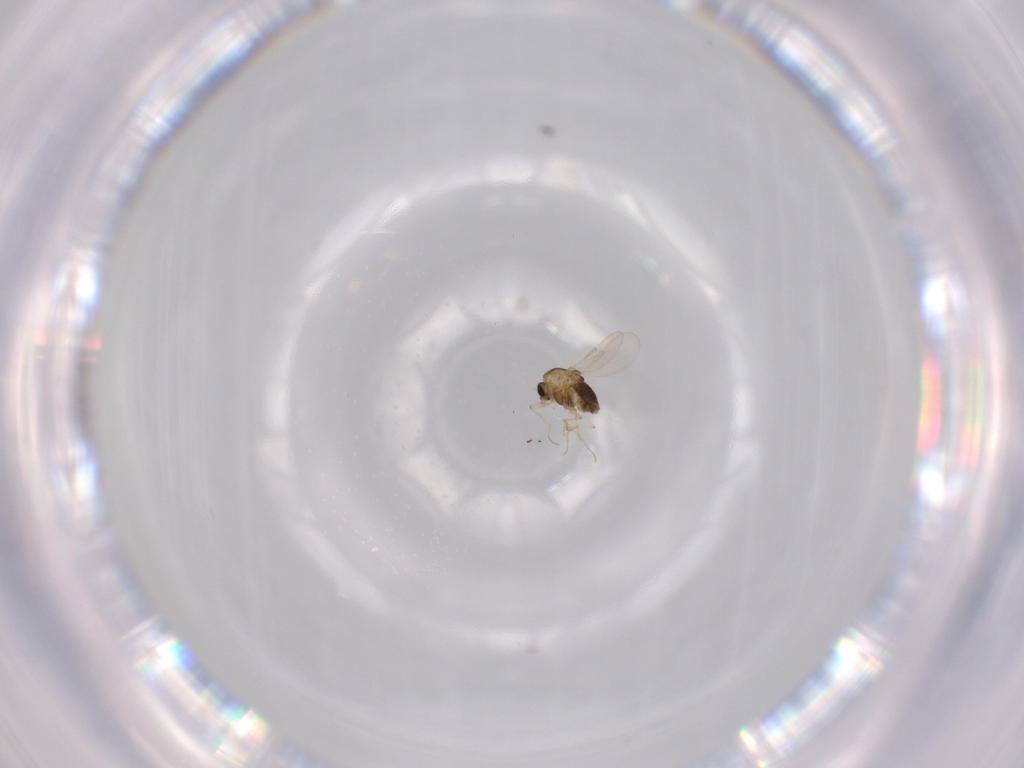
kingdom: Animalia
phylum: Arthropoda
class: Insecta
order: Diptera
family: Chironomidae
